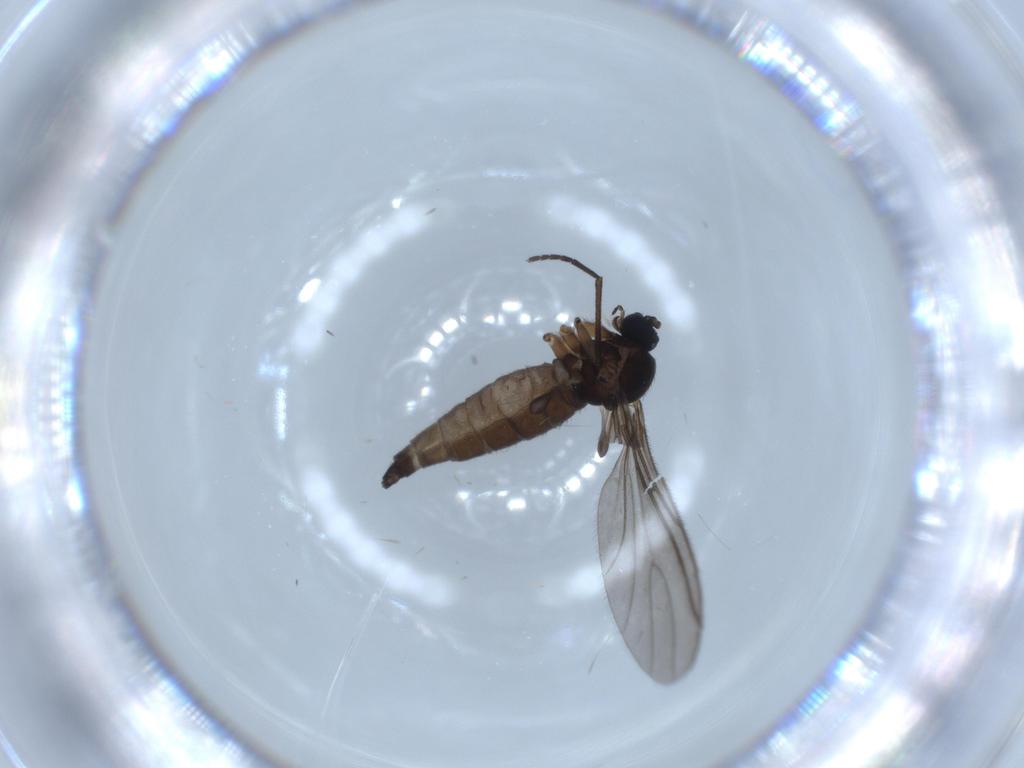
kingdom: Animalia
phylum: Arthropoda
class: Insecta
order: Diptera
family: Sciaridae
